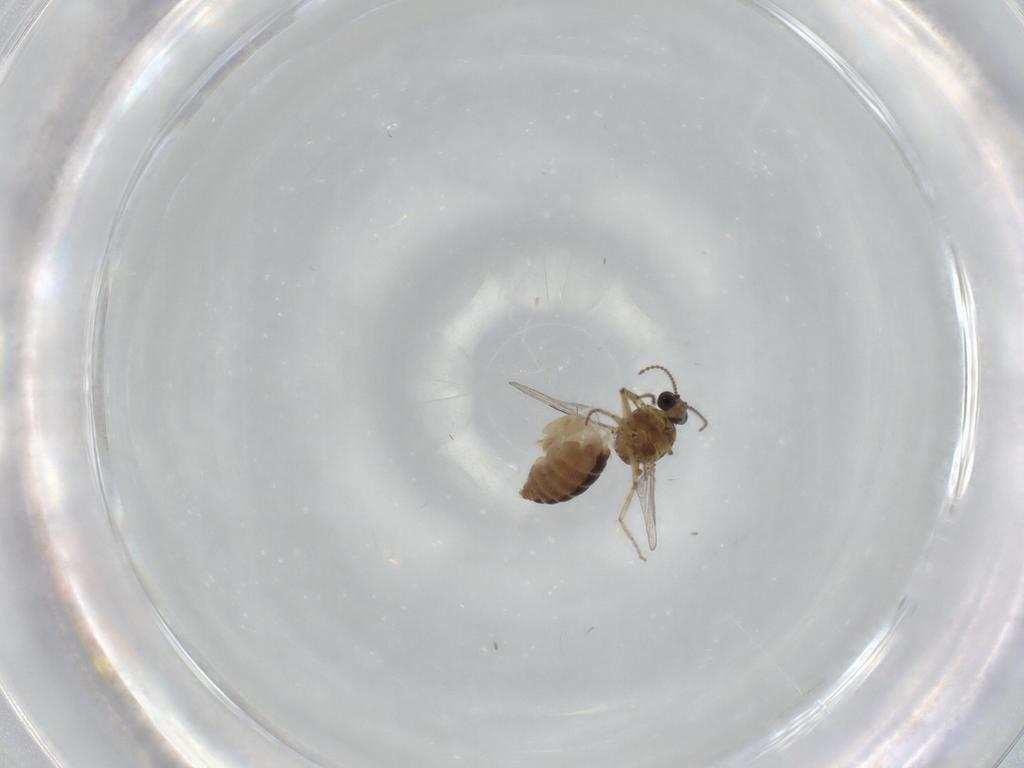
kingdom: Animalia
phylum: Arthropoda
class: Insecta
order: Diptera
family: Ceratopogonidae
